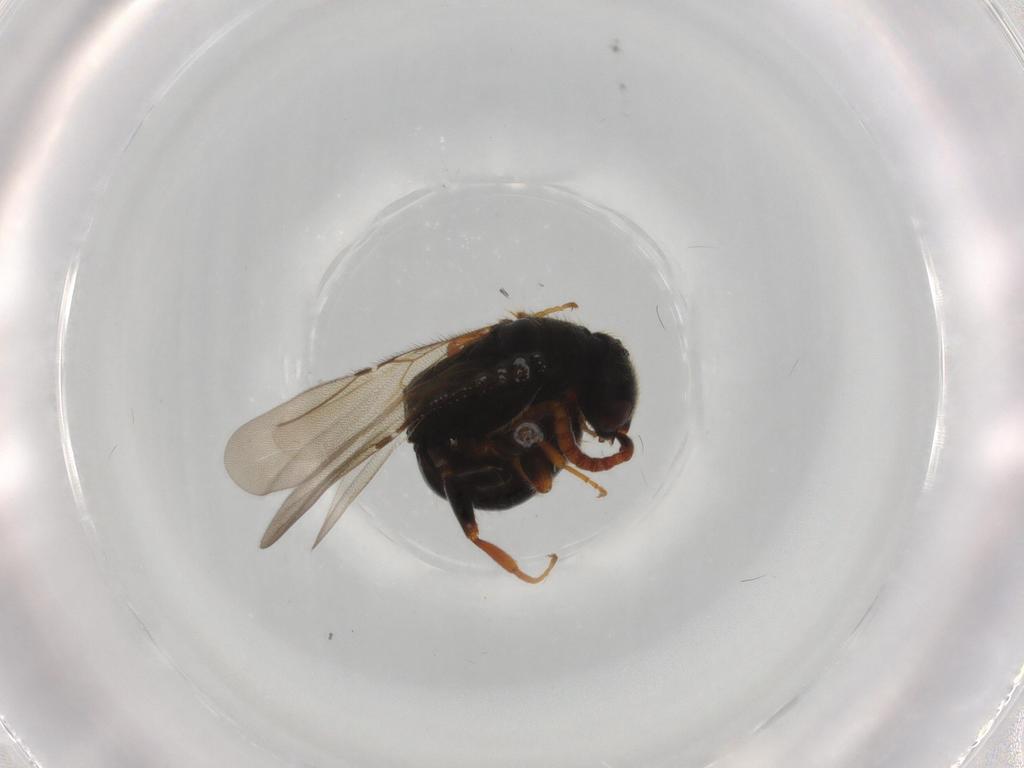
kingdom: Animalia
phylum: Arthropoda
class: Insecta
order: Hymenoptera
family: Bethylidae
